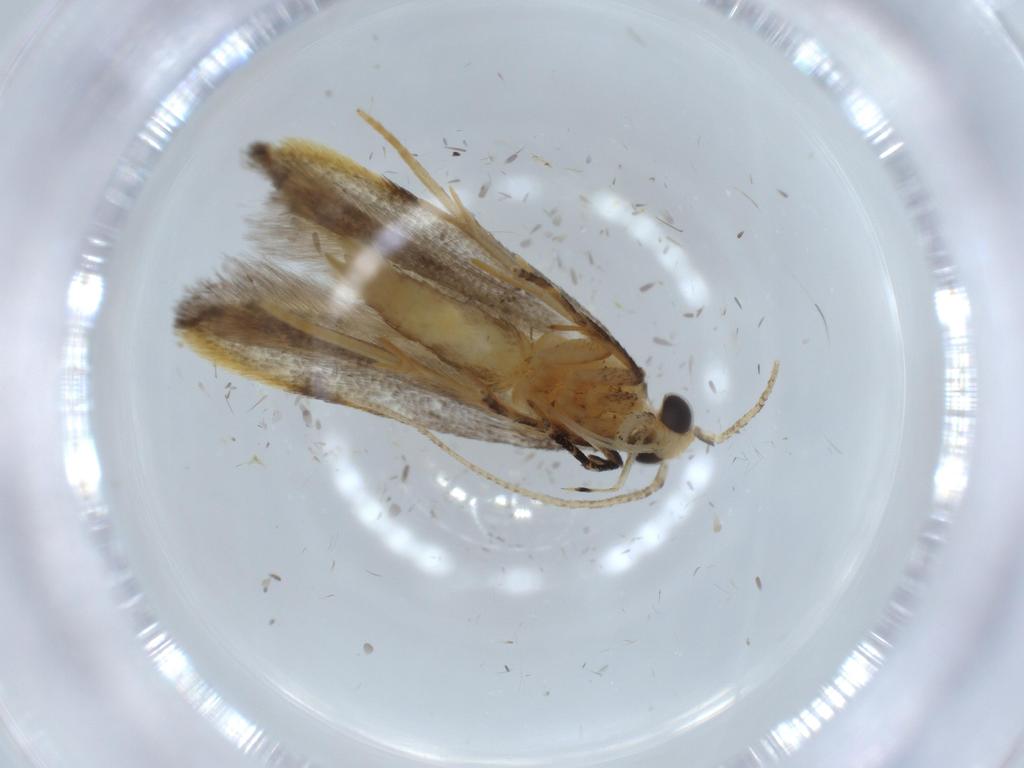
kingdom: Animalia
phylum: Arthropoda
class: Insecta
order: Lepidoptera
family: Autostichidae
